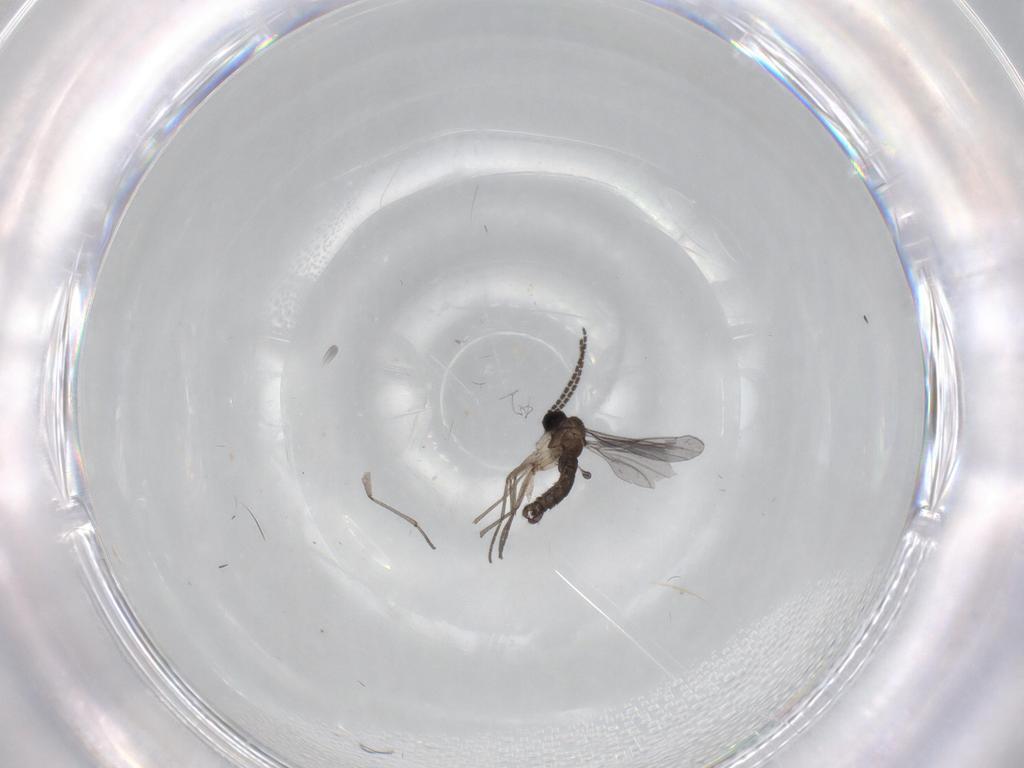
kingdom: Animalia
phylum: Arthropoda
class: Insecta
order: Diptera
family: Sciaridae
